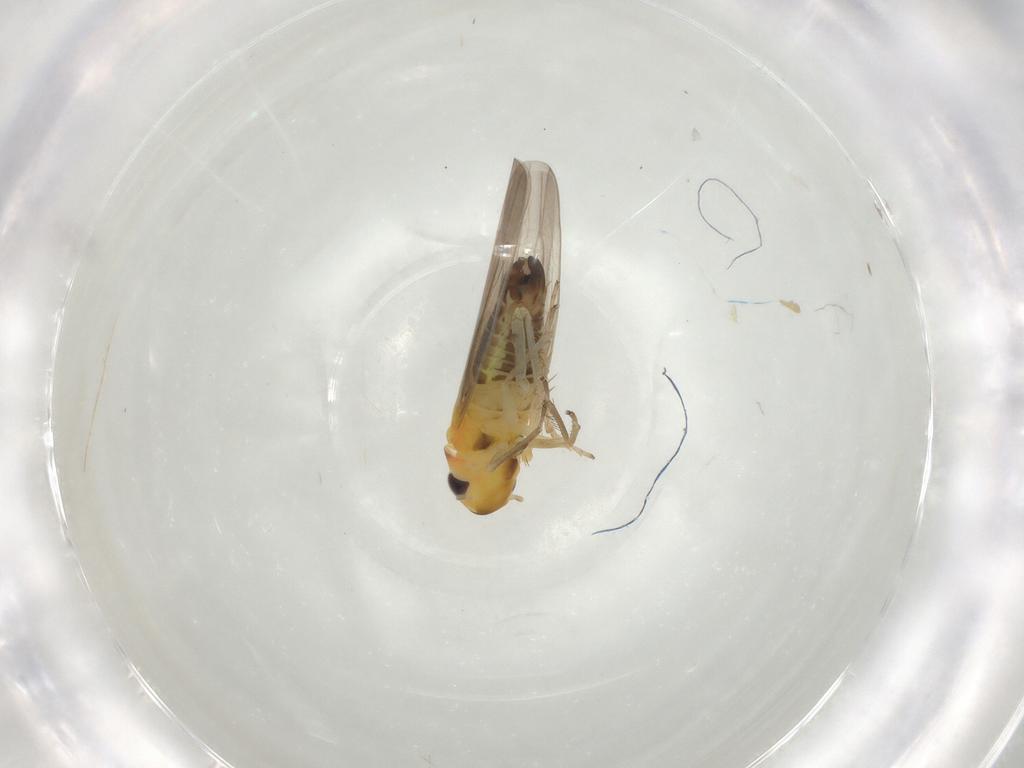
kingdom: Animalia
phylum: Arthropoda
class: Insecta
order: Hemiptera
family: Cicadellidae
